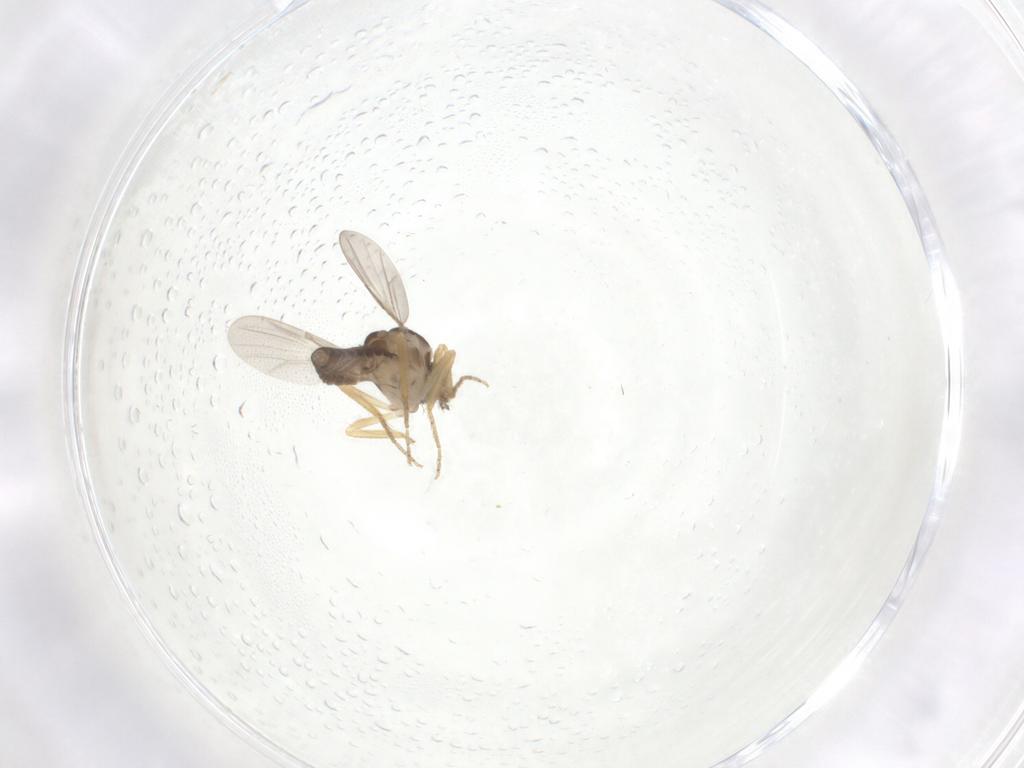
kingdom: Animalia
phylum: Arthropoda
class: Insecta
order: Diptera
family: Ceratopogonidae
